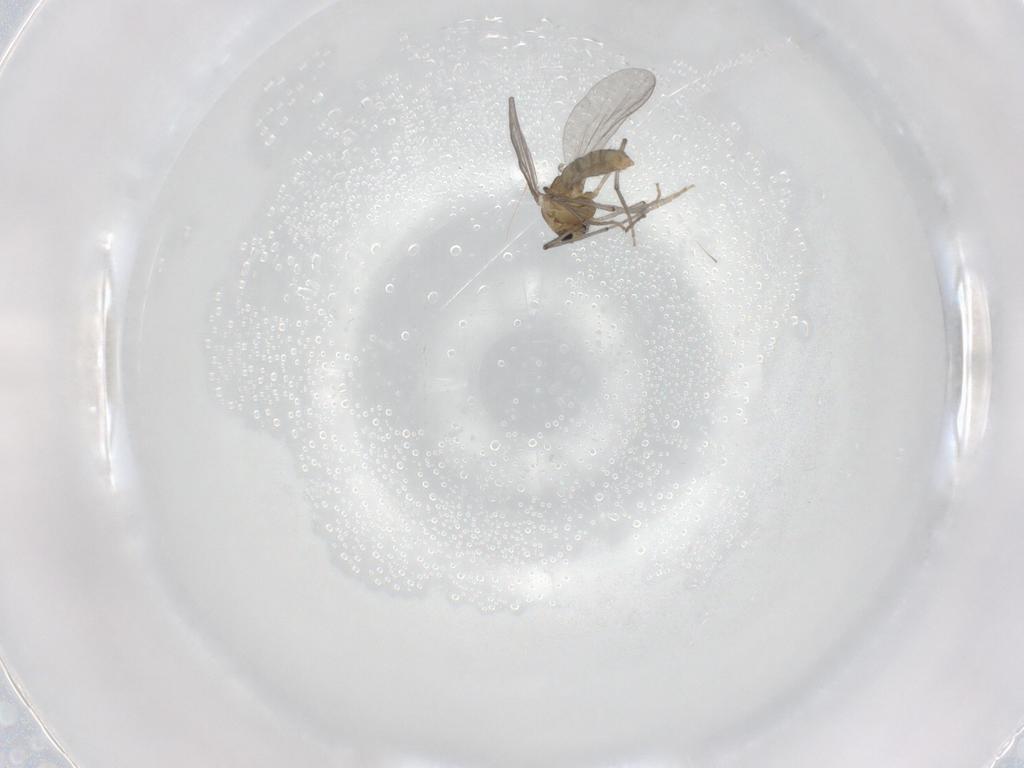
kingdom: Animalia
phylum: Arthropoda
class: Insecta
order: Diptera
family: Chironomidae
